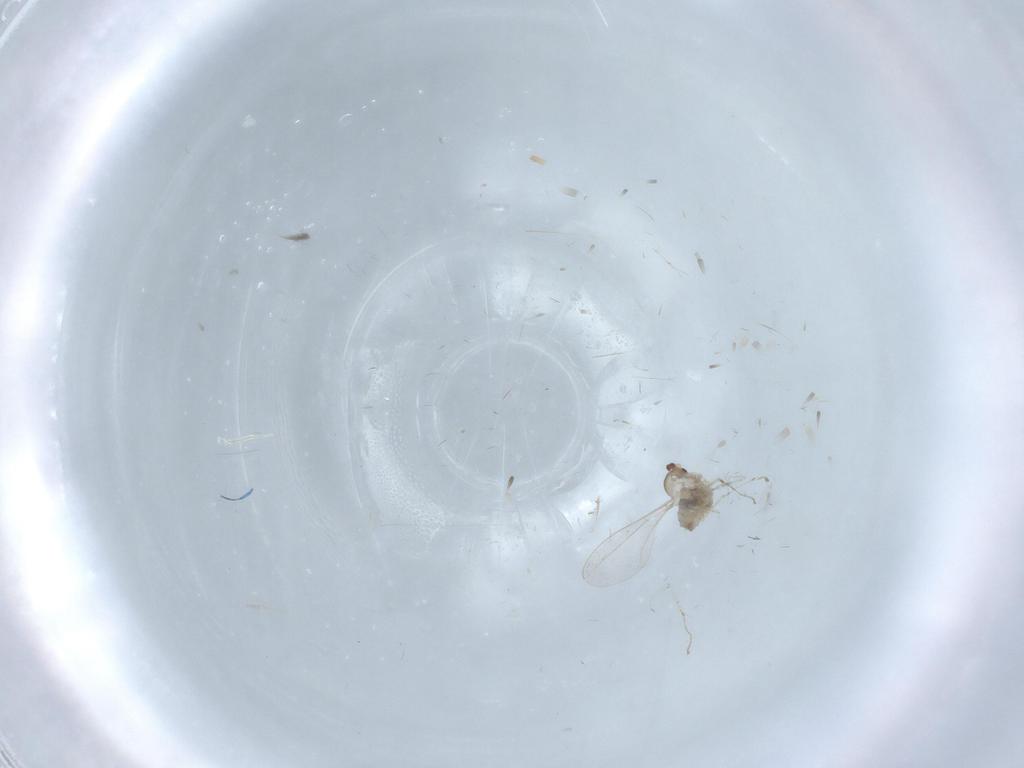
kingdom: Animalia
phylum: Arthropoda
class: Insecta
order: Diptera
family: Cecidomyiidae
